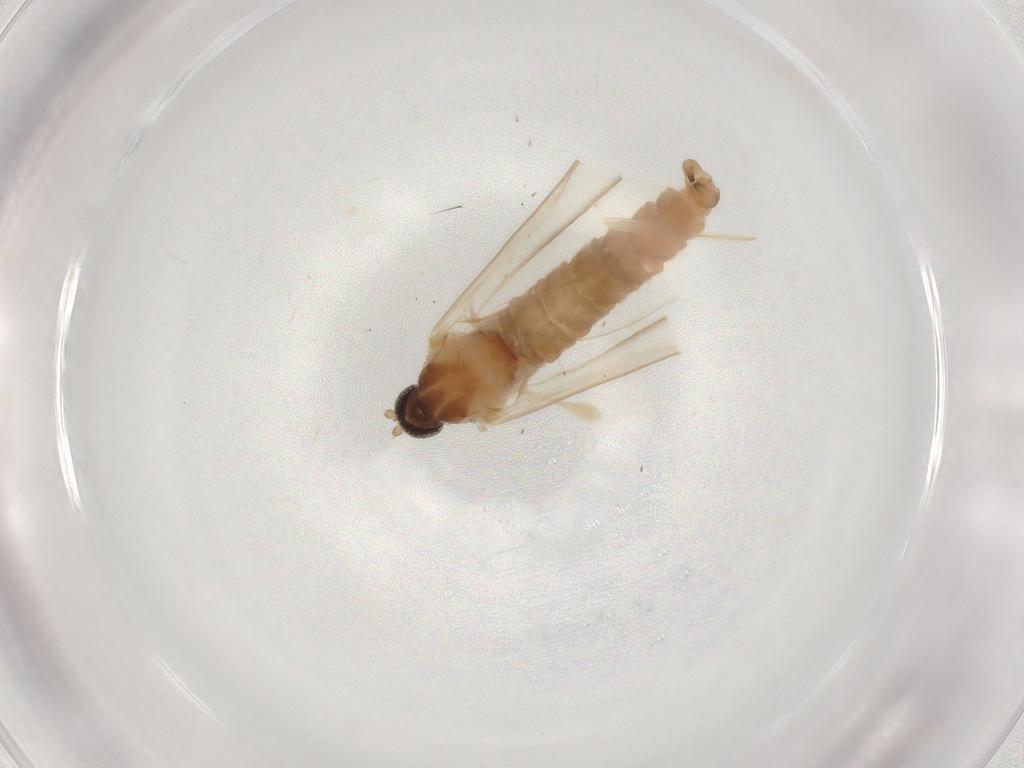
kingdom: Animalia
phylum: Arthropoda
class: Insecta
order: Diptera
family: Cecidomyiidae
